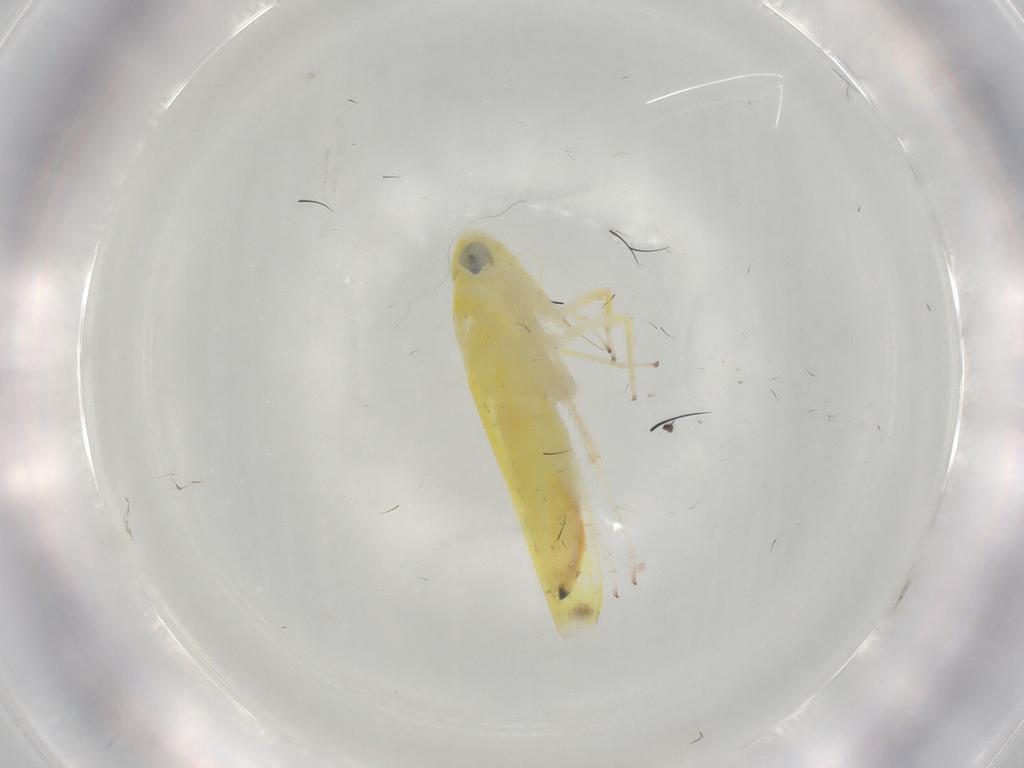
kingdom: Animalia
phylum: Arthropoda
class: Insecta
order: Hemiptera
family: Cicadellidae
